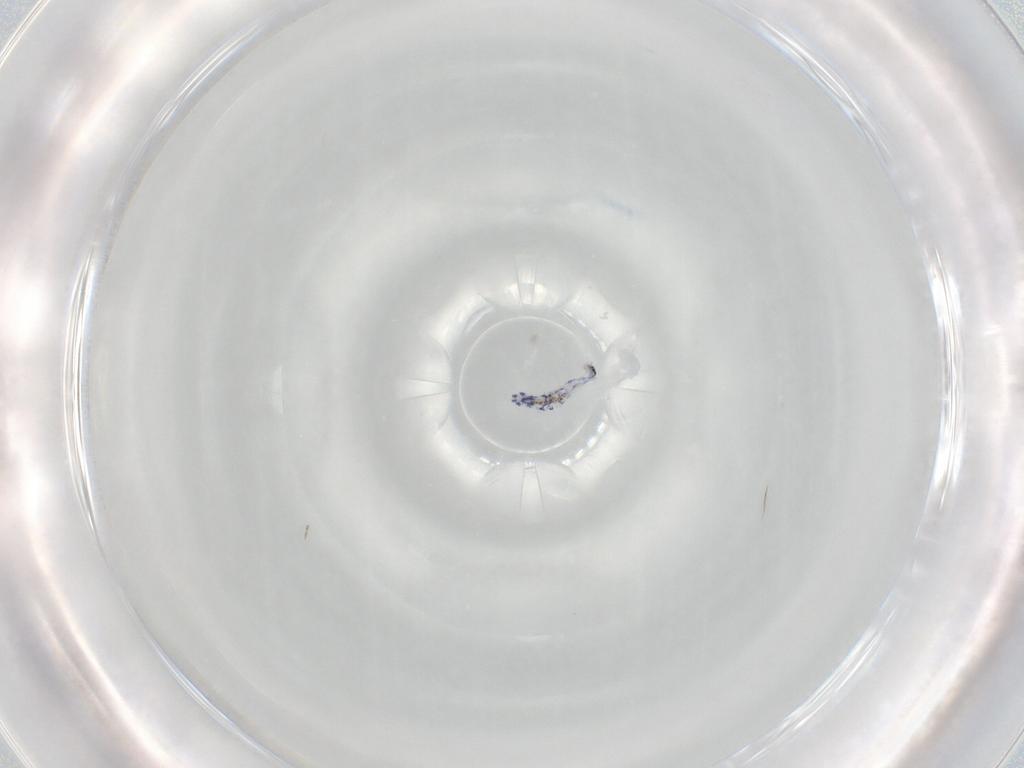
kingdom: Animalia
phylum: Arthropoda
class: Collembola
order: Entomobryomorpha
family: Entomobryidae
